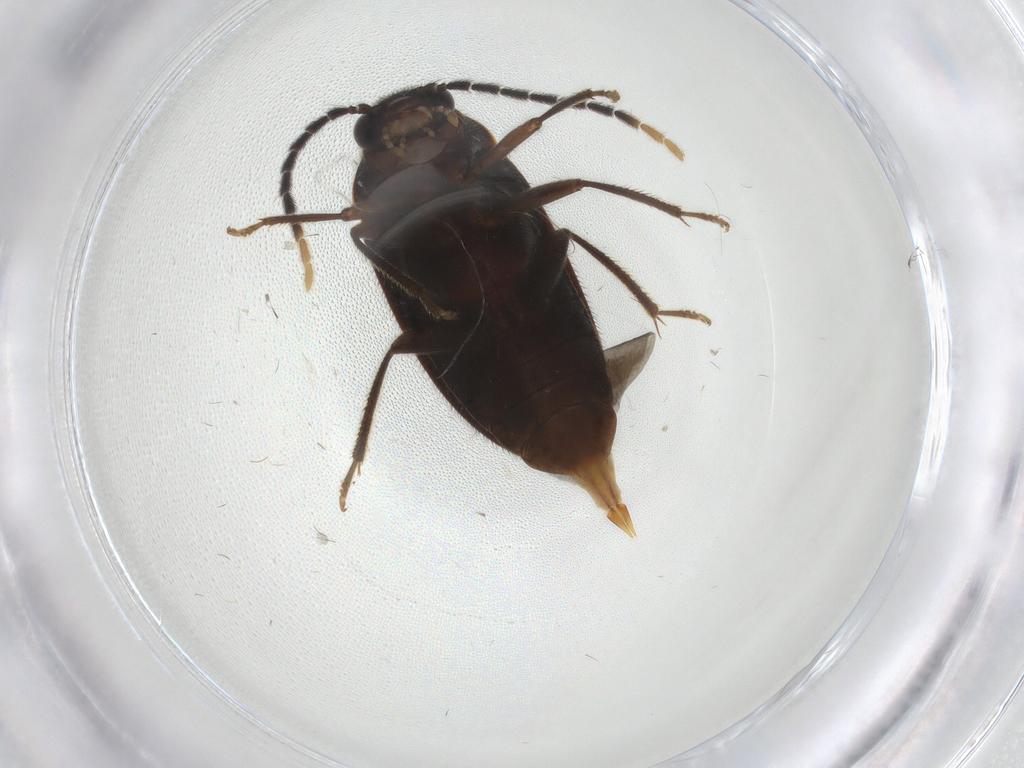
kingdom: Animalia
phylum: Arthropoda
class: Insecta
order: Coleoptera
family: Ptilodactylidae
